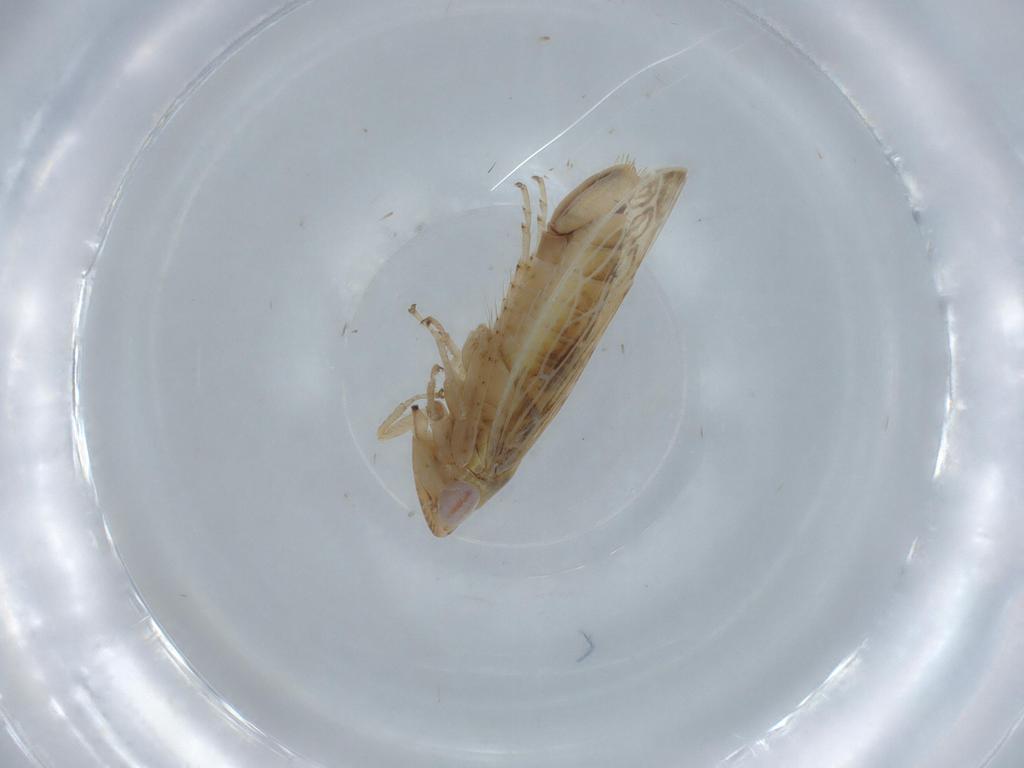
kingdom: Animalia
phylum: Arthropoda
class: Insecta
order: Hemiptera
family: Cicadellidae
